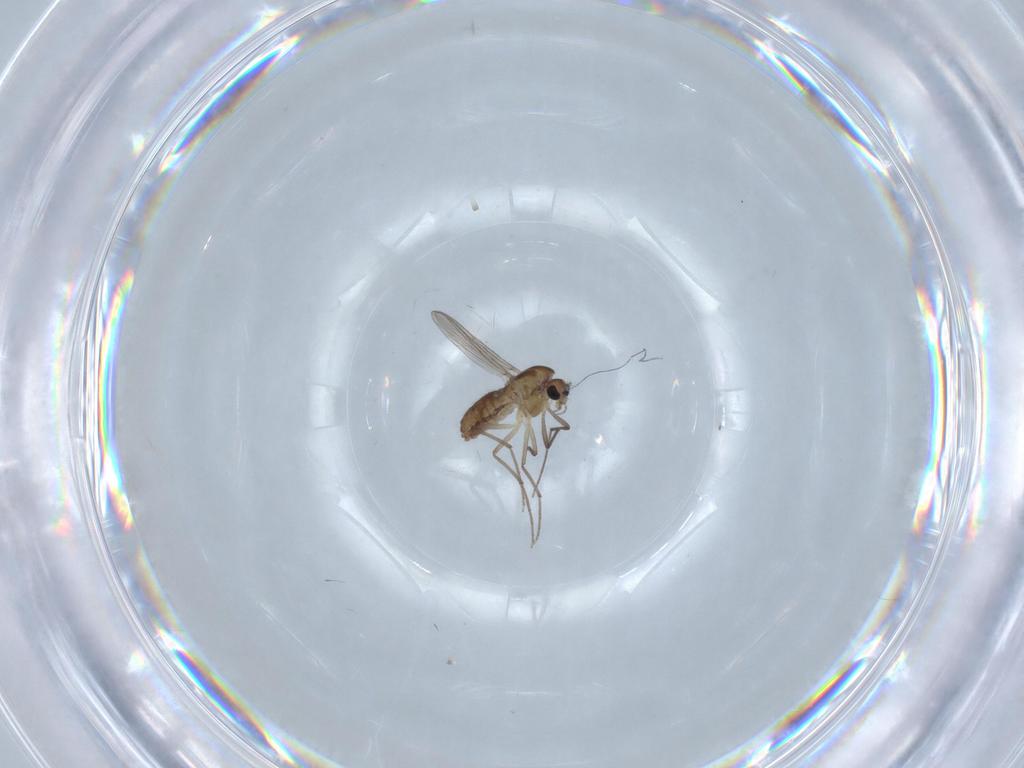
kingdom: Animalia
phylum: Arthropoda
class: Insecta
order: Diptera
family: Chironomidae
